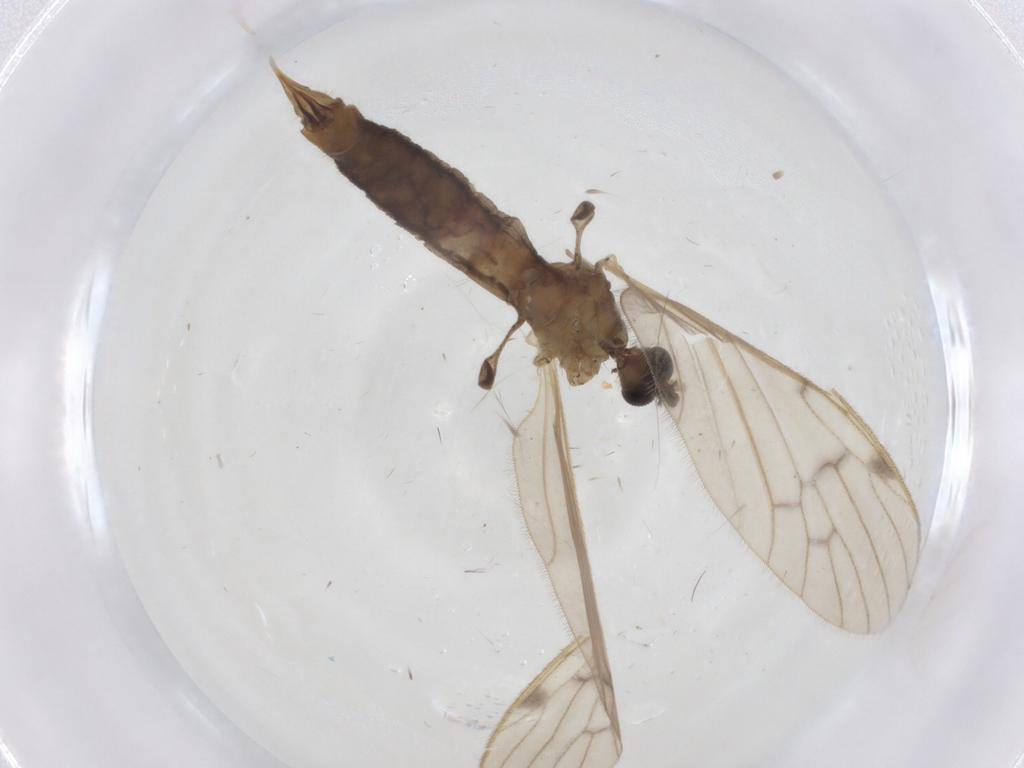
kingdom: Animalia
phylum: Arthropoda
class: Insecta
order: Diptera
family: Limoniidae
